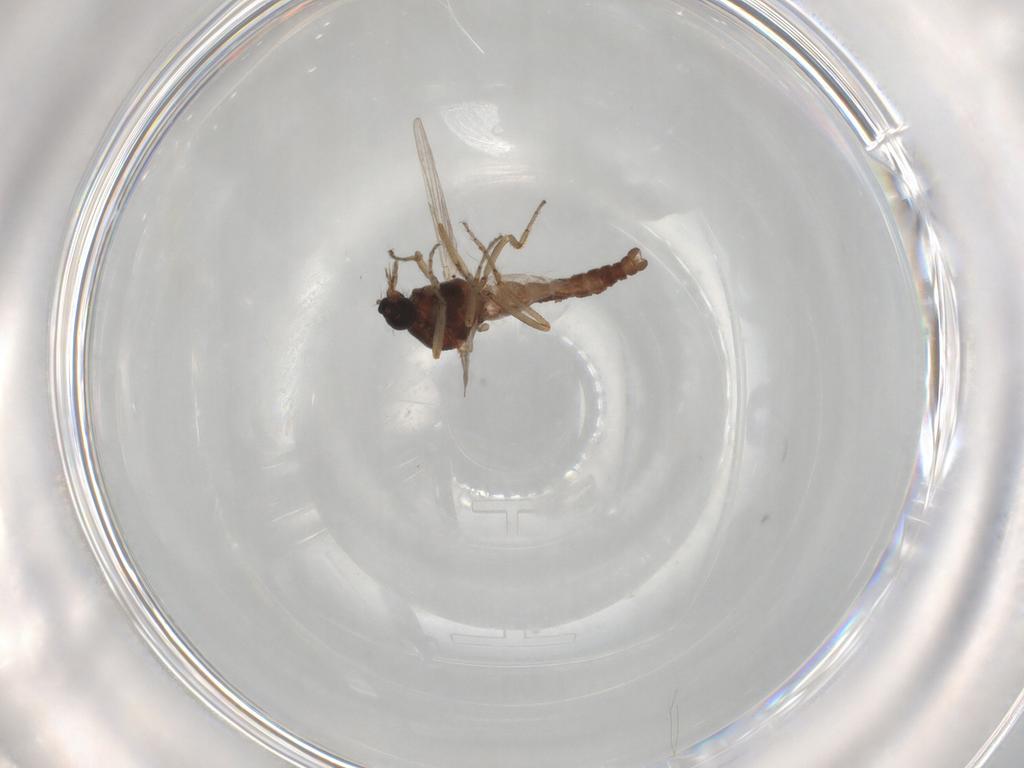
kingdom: Animalia
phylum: Arthropoda
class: Insecta
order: Diptera
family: Ceratopogonidae
